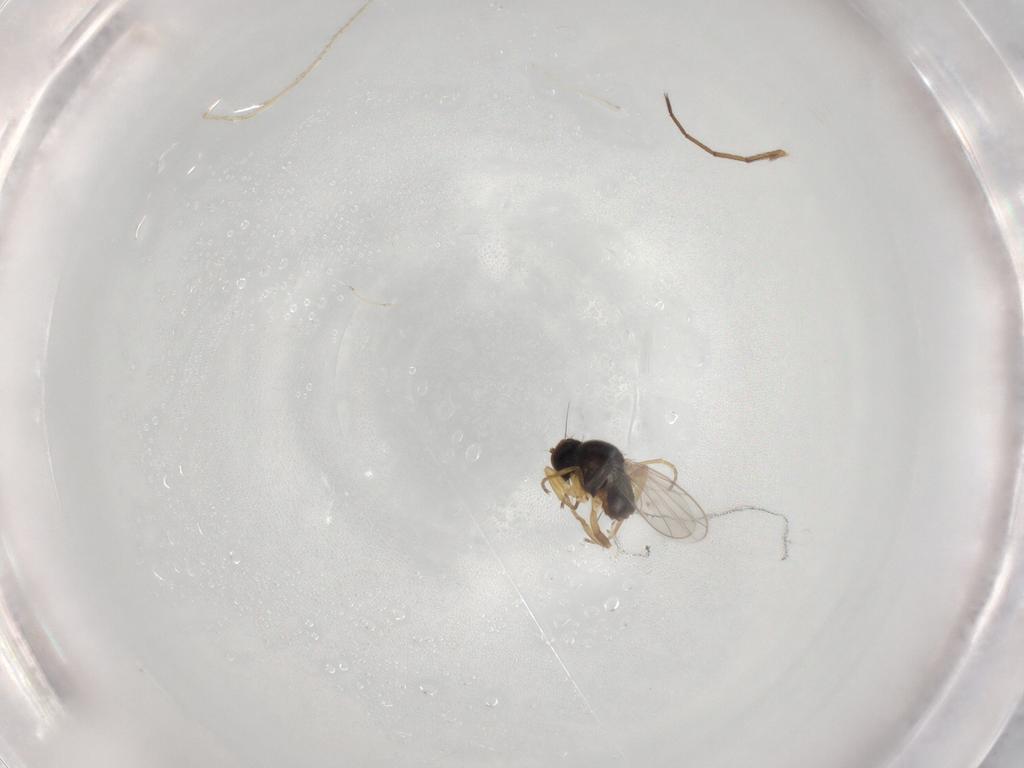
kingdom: Animalia
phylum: Arthropoda
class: Insecta
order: Diptera
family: Hybotidae
